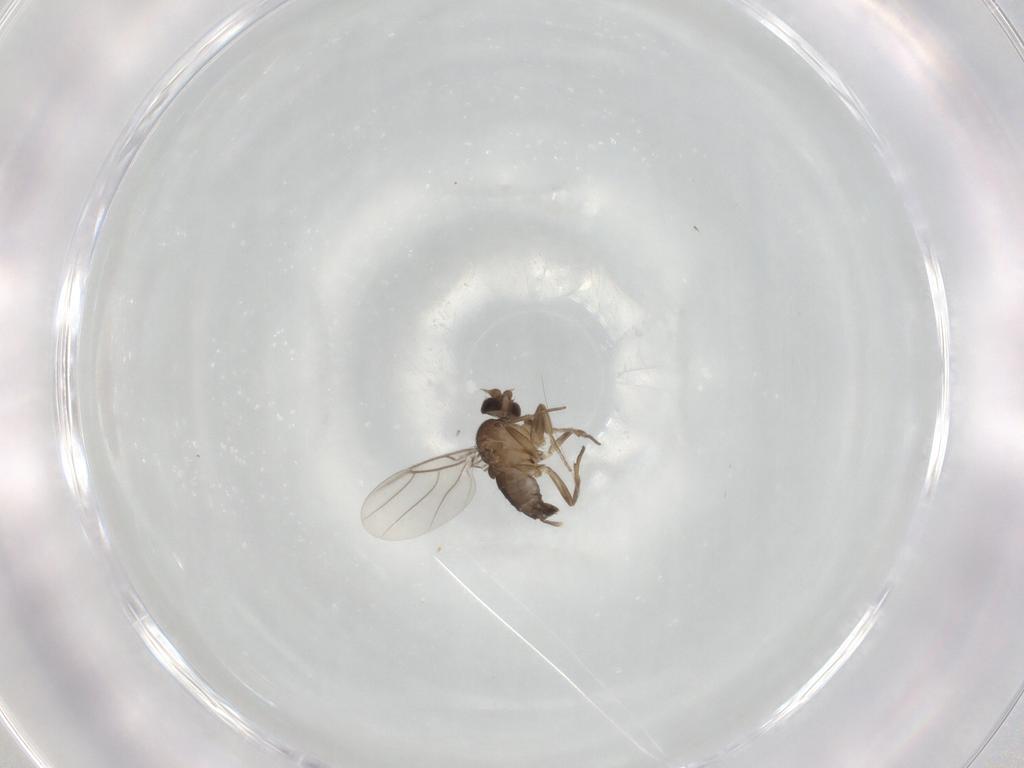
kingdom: Animalia
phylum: Arthropoda
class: Insecta
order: Diptera
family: Phoridae
